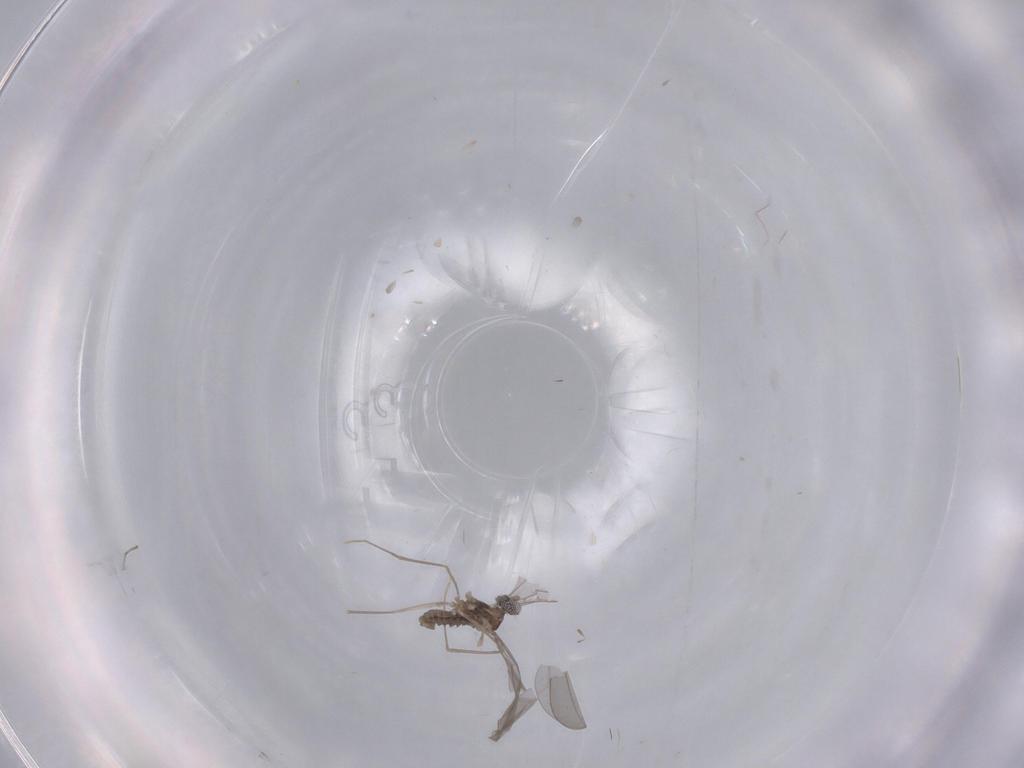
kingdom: Animalia
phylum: Arthropoda
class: Insecta
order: Diptera
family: Cecidomyiidae
